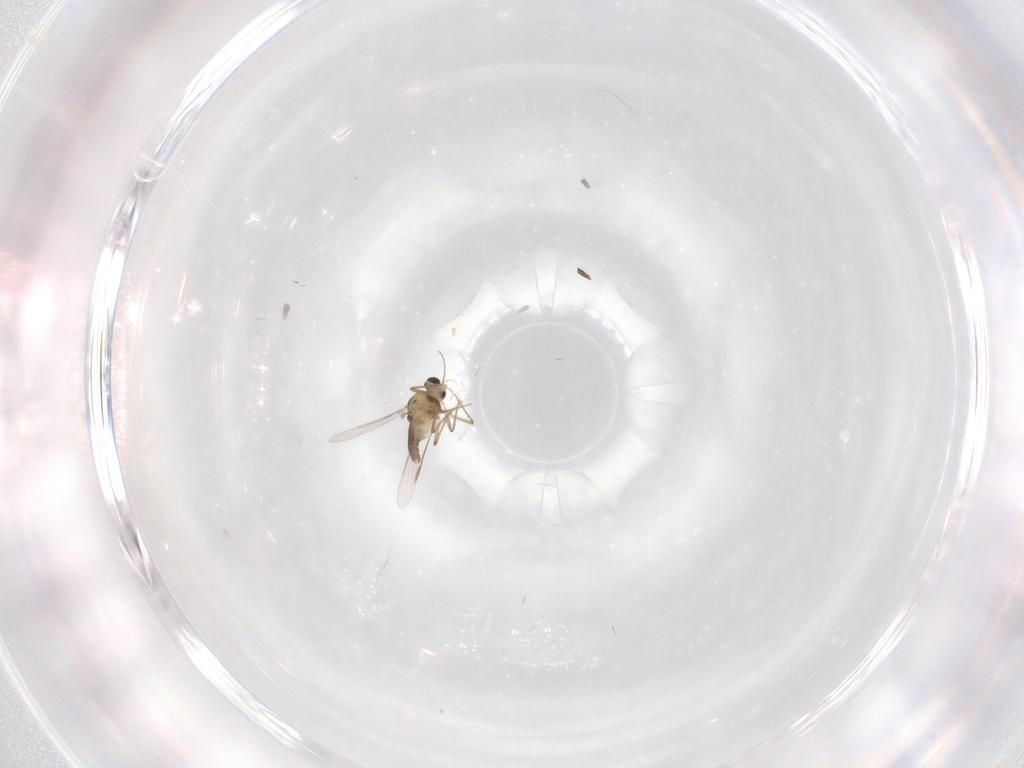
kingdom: Animalia
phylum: Arthropoda
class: Insecta
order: Diptera
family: Chironomidae
